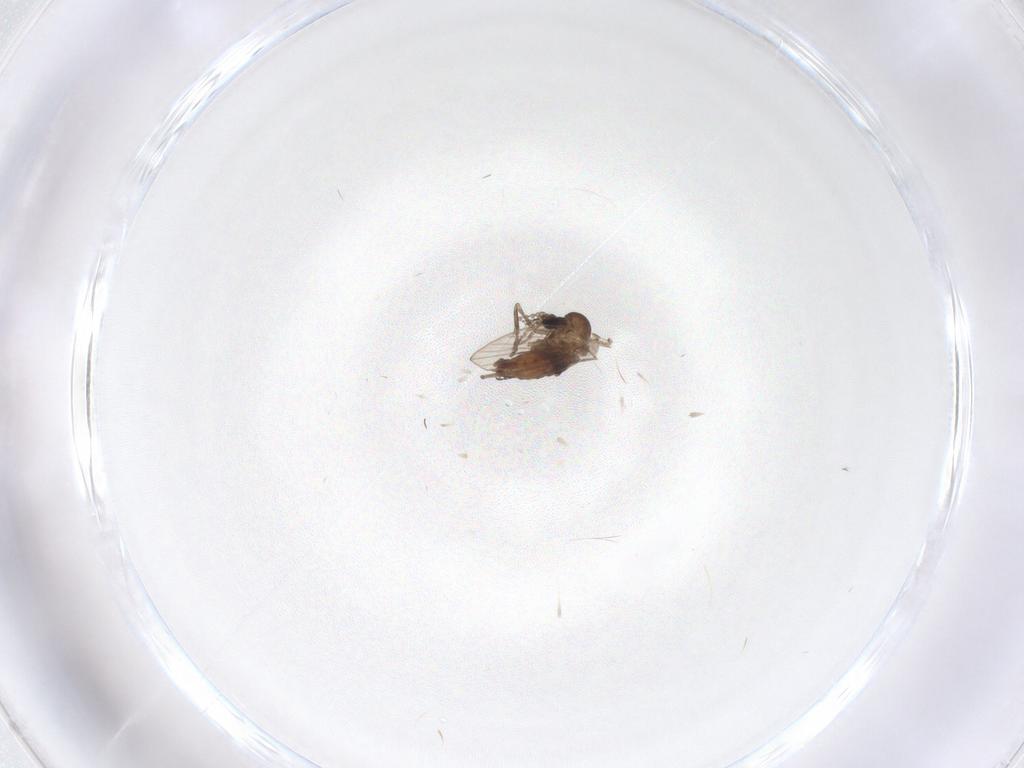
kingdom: Animalia
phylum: Arthropoda
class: Insecta
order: Diptera
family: Psychodidae
